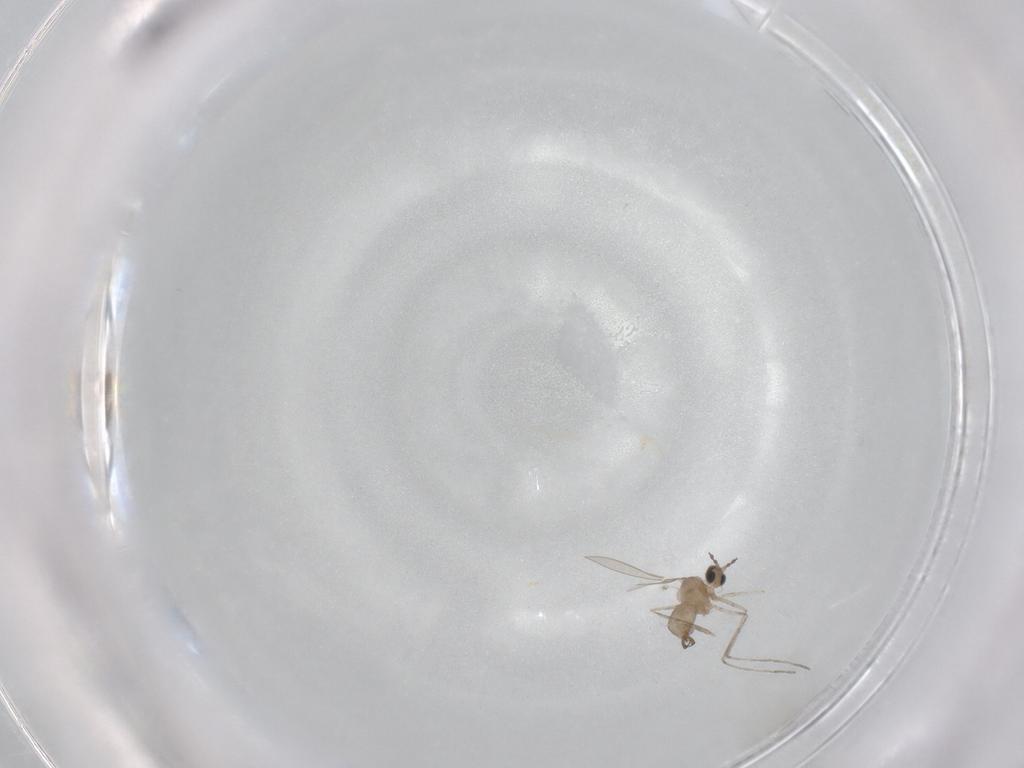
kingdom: Animalia
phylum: Arthropoda
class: Insecta
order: Diptera
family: Cecidomyiidae
